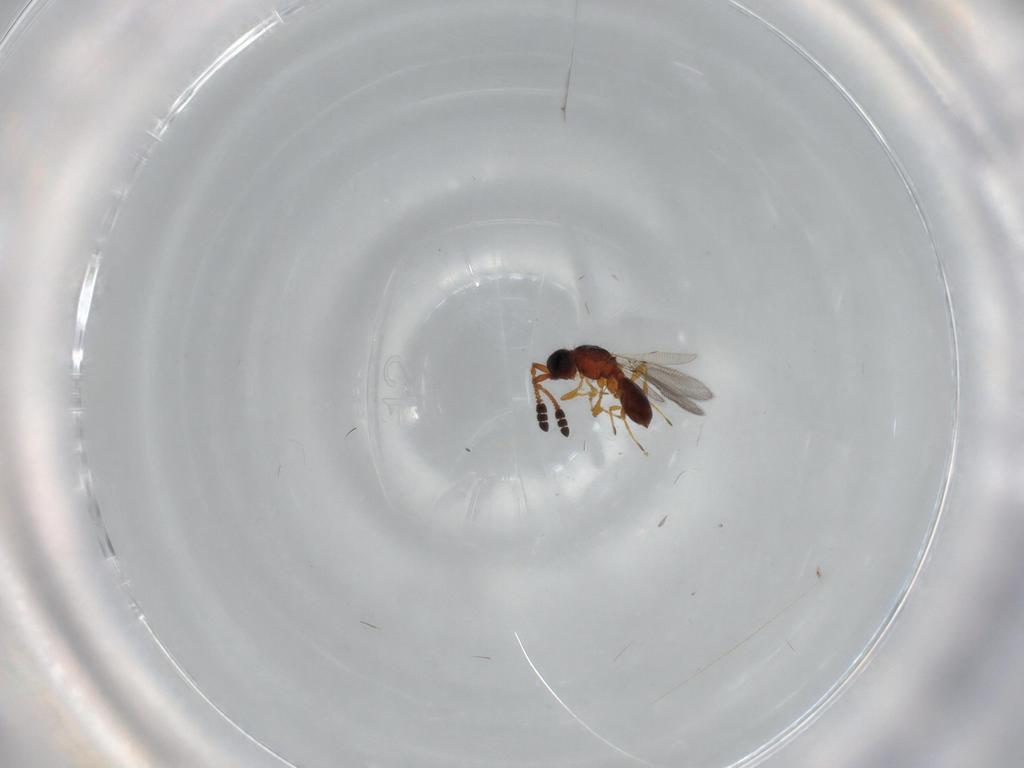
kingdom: Animalia
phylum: Arthropoda
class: Insecta
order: Hymenoptera
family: Diapriidae
